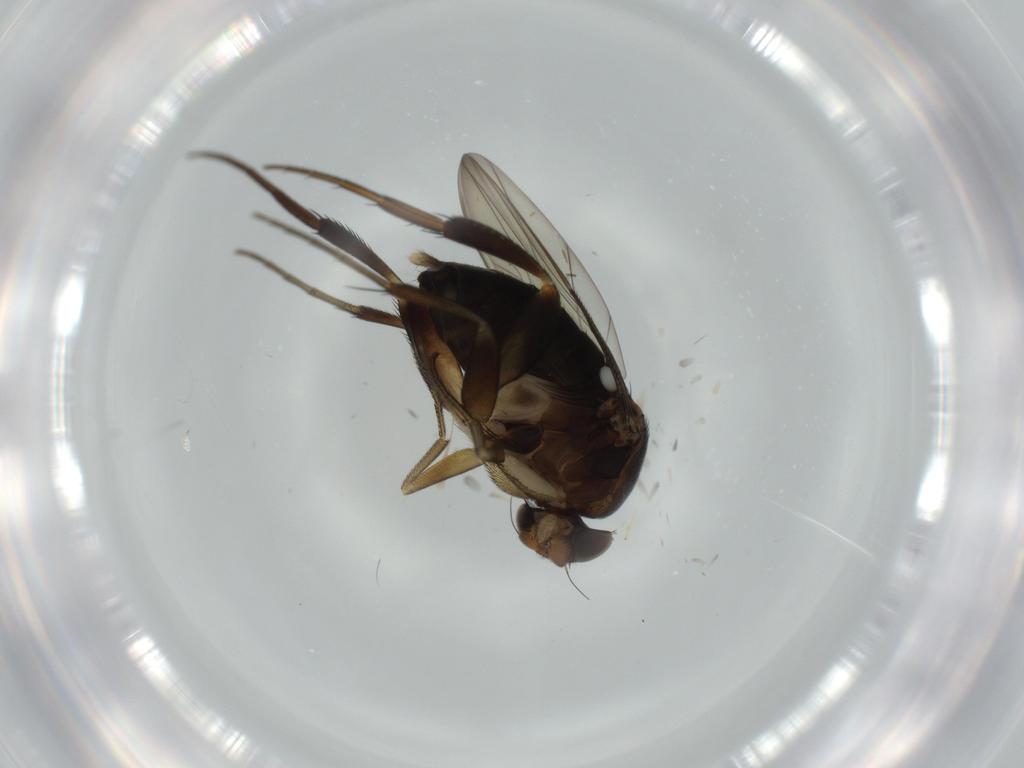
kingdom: Animalia
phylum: Arthropoda
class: Insecta
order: Diptera
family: Phoridae
